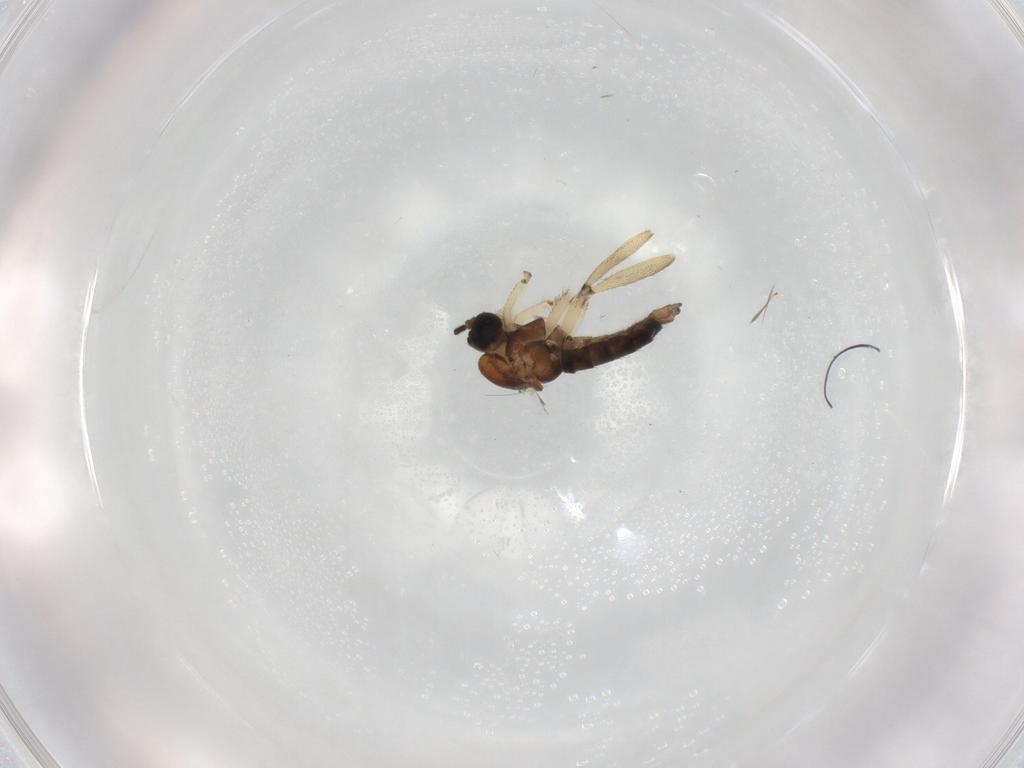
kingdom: Animalia
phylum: Arthropoda
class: Insecta
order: Diptera
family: Sciaridae
